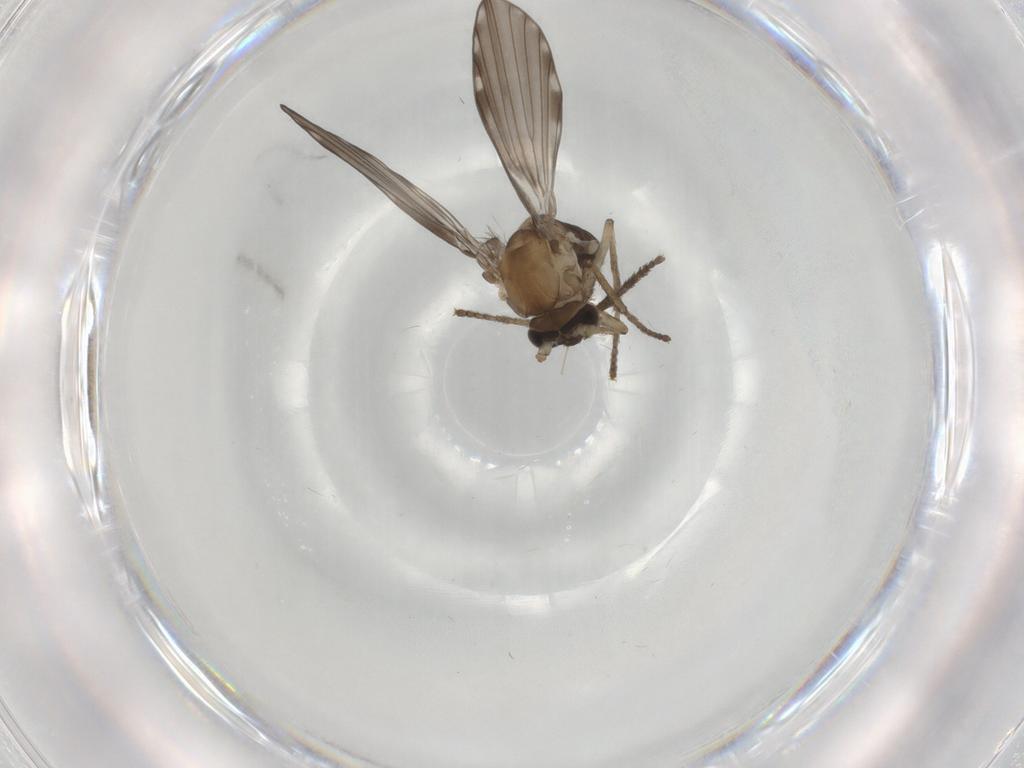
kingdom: Animalia
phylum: Arthropoda
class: Insecta
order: Diptera
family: Psychodidae
